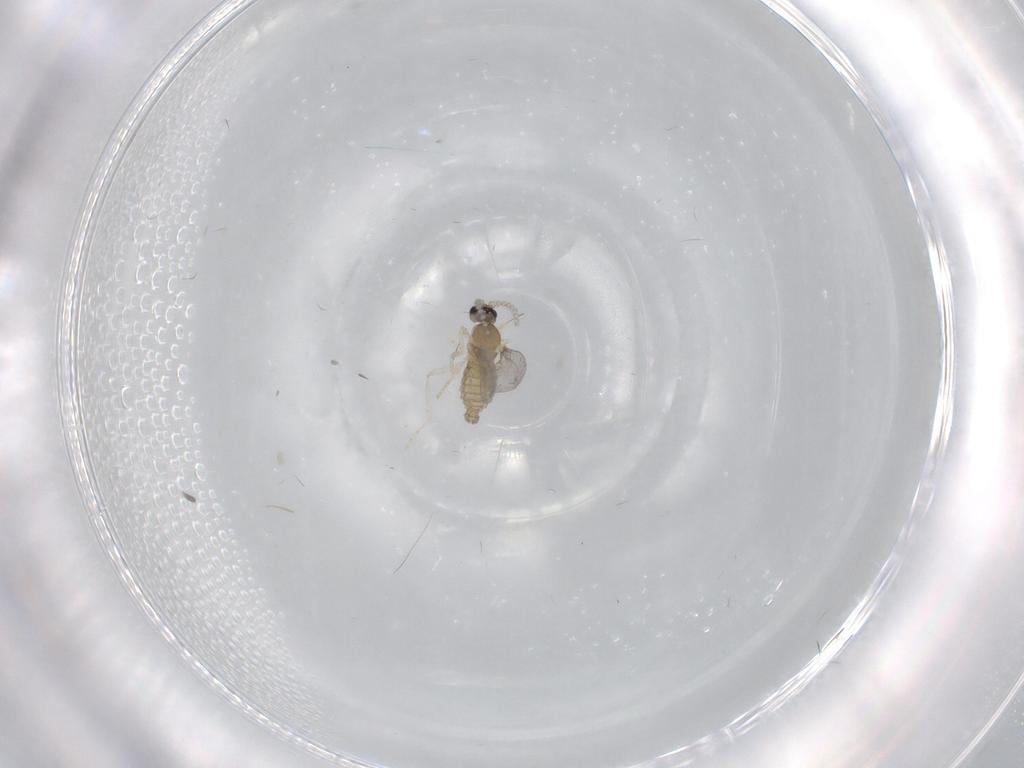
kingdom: Animalia
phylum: Arthropoda
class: Insecta
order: Diptera
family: Cecidomyiidae
